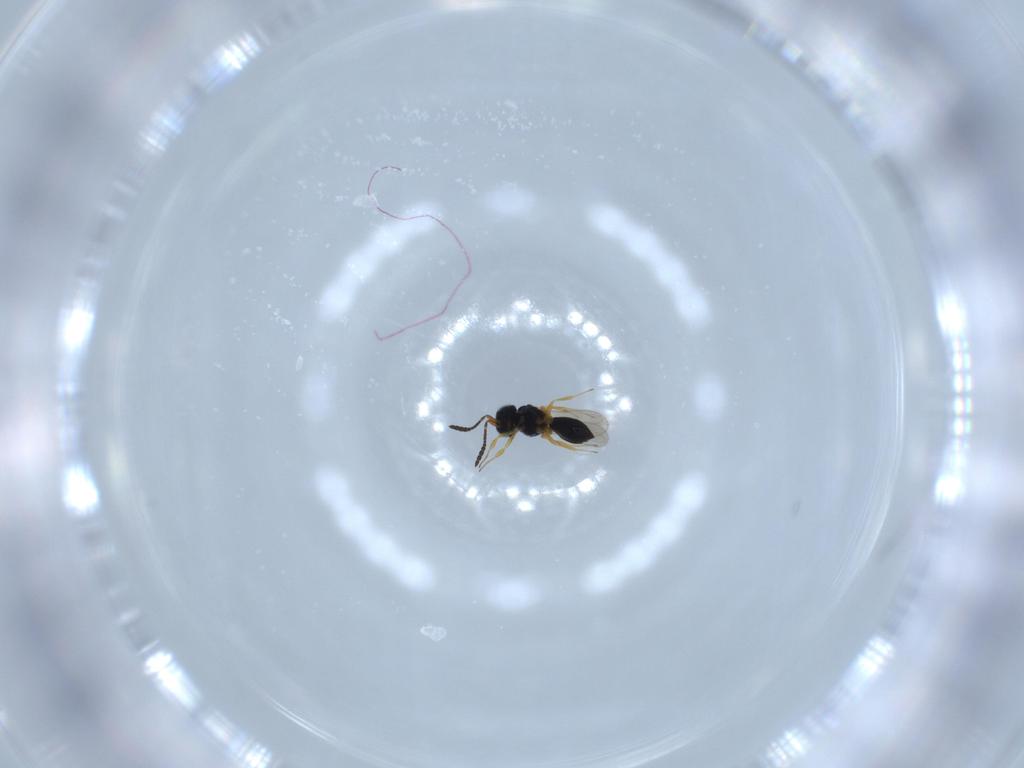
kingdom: Animalia
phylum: Arthropoda
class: Insecta
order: Hymenoptera
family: Scelionidae
